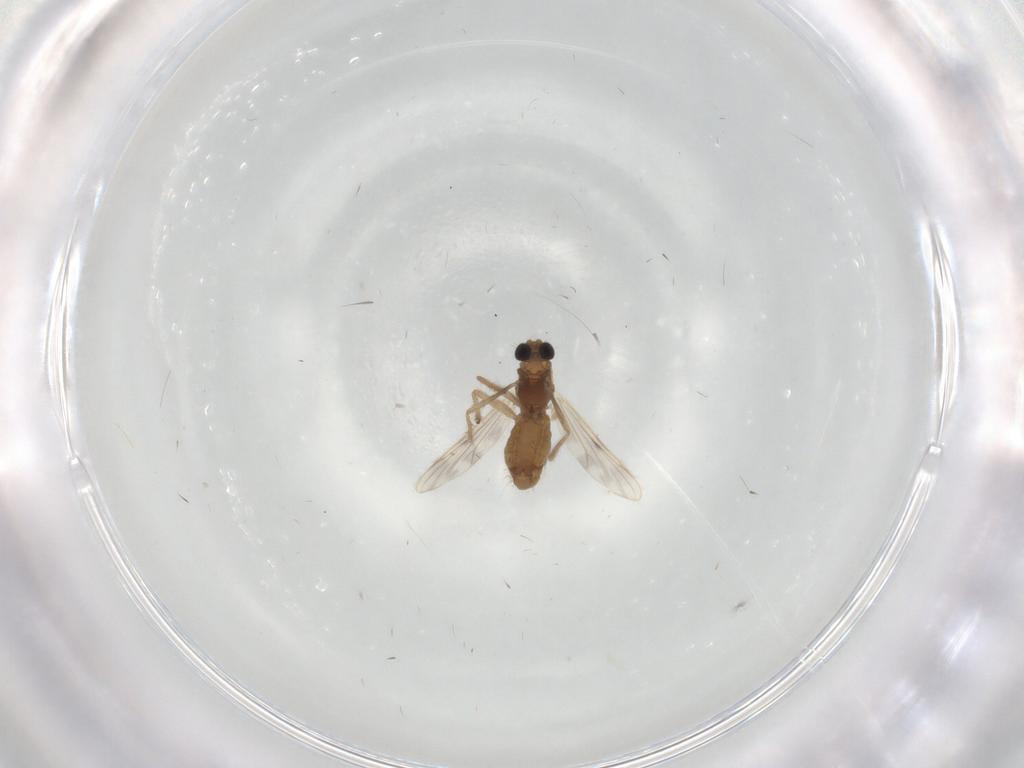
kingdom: Animalia
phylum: Arthropoda
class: Insecta
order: Diptera
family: Chironomidae
